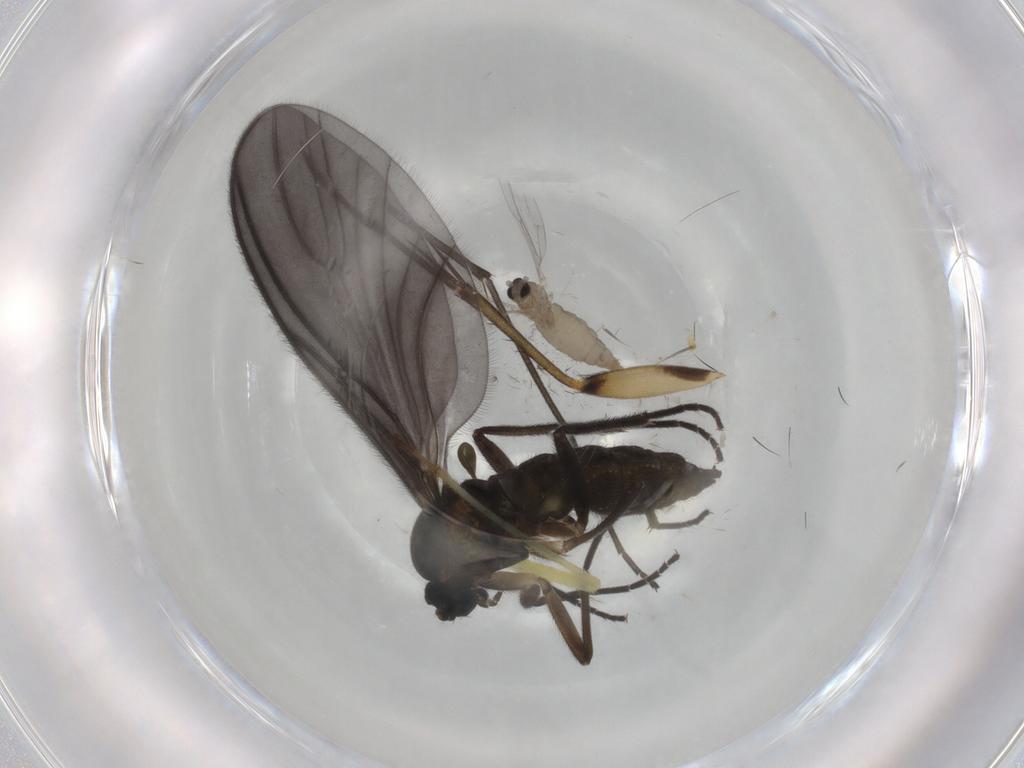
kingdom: Animalia
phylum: Arthropoda
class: Insecta
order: Diptera
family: Sciaridae
